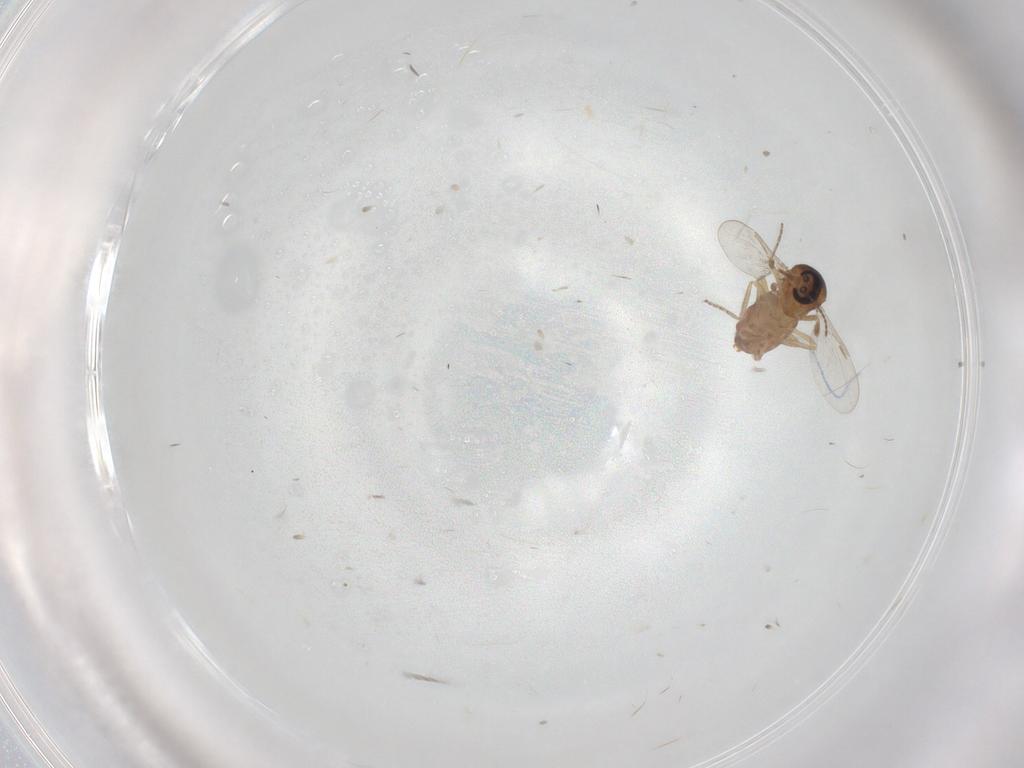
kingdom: Animalia
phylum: Arthropoda
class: Insecta
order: Diptera
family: Ceratopogonidae
